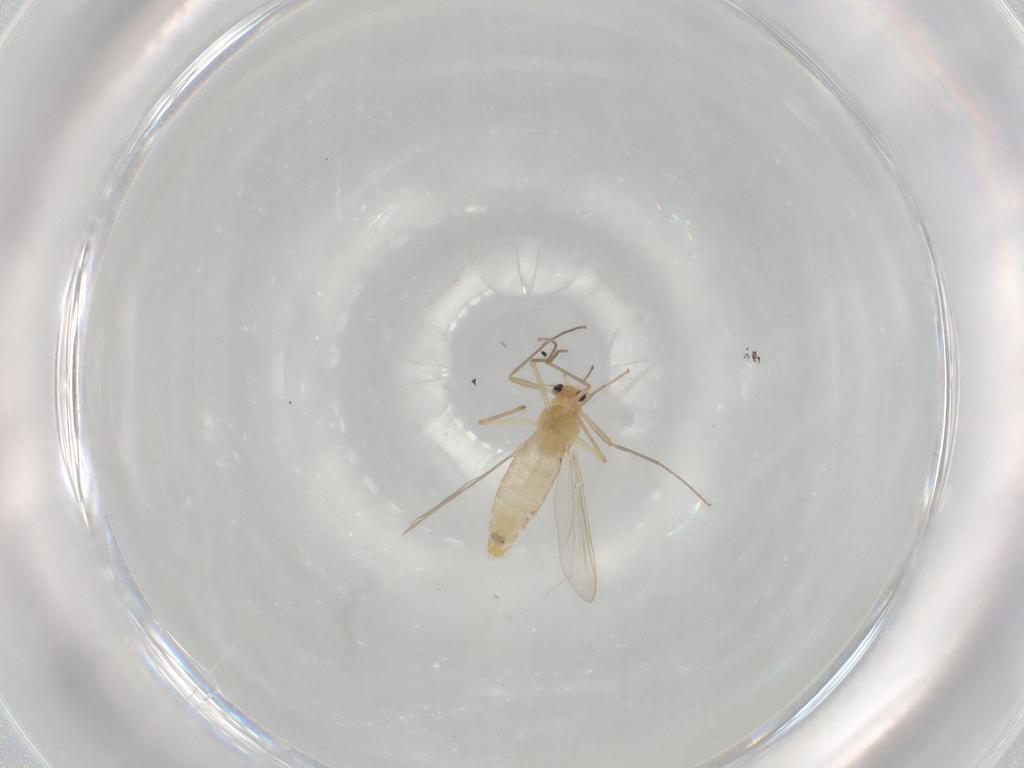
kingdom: Animalia
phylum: Arthropoda
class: Insecta
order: Diptera
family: Chironomidae
